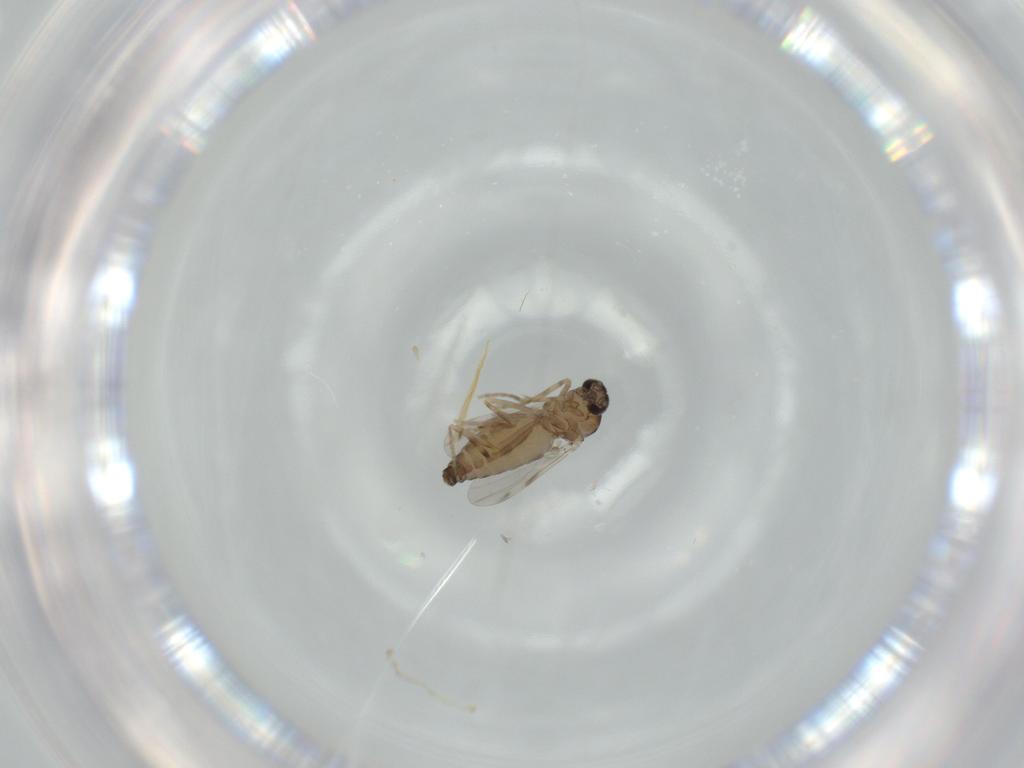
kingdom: Animalia
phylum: Arthropoda
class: Insecta
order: Diptera
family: Ceratopogonidae
